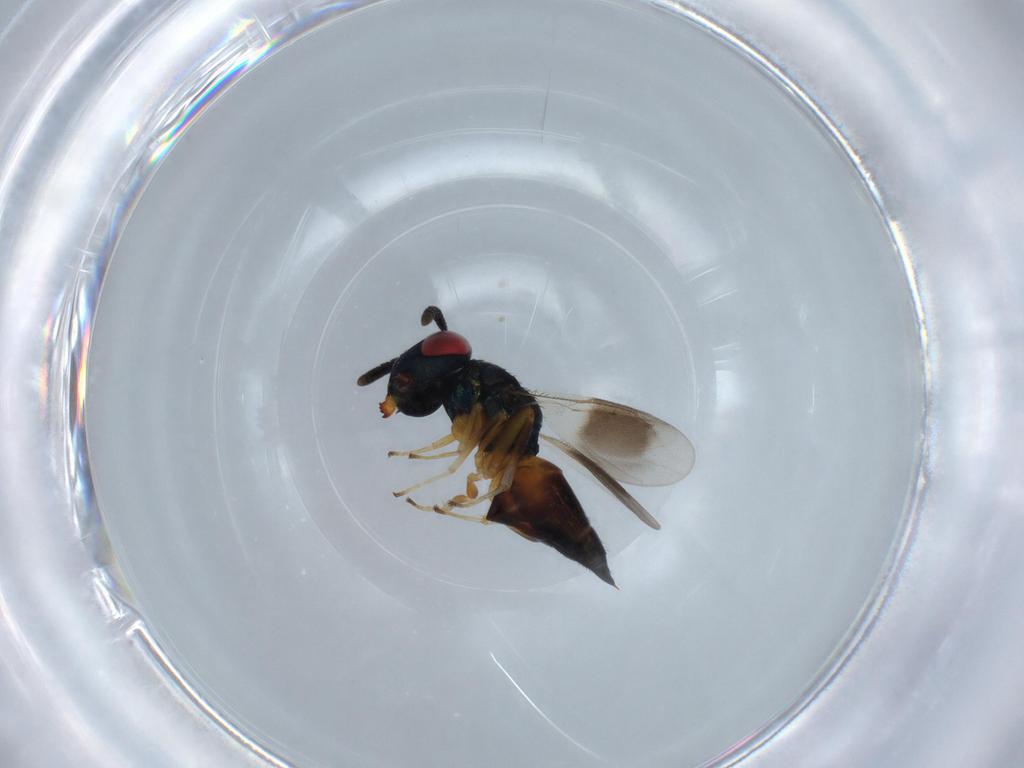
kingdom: Animalia
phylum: Arthropoda
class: Insecta
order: Hymenoptera
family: Pteromalidae
